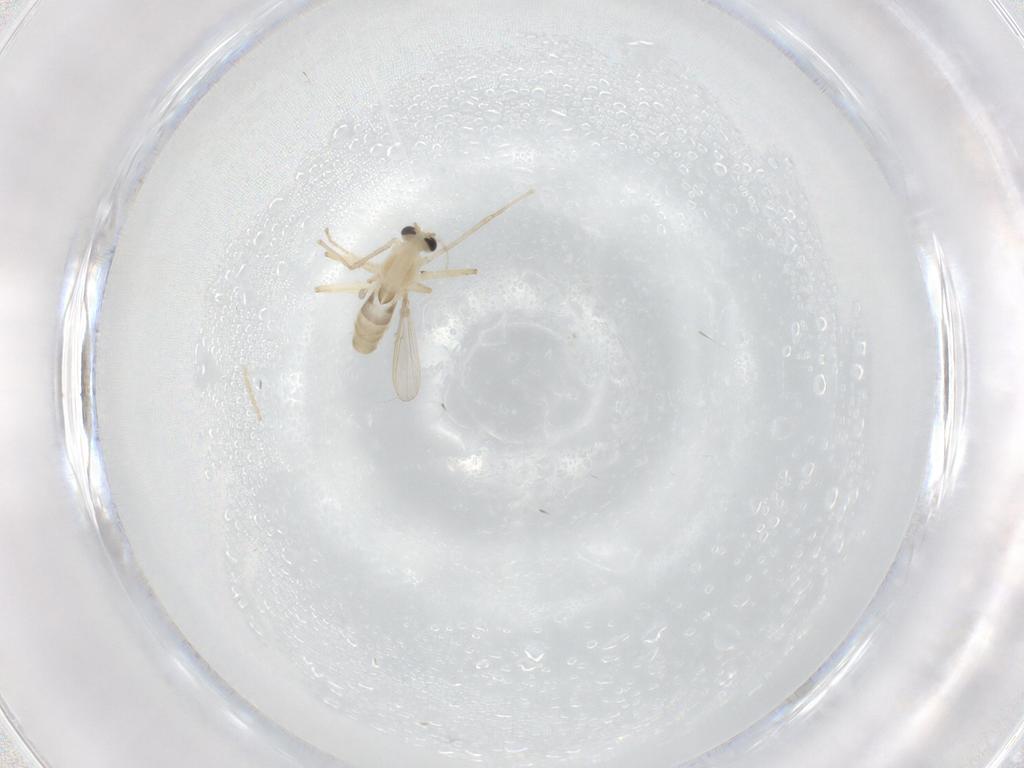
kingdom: Animalia
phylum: Arthropoda
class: Insecta
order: Diptera
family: Chironomidae
